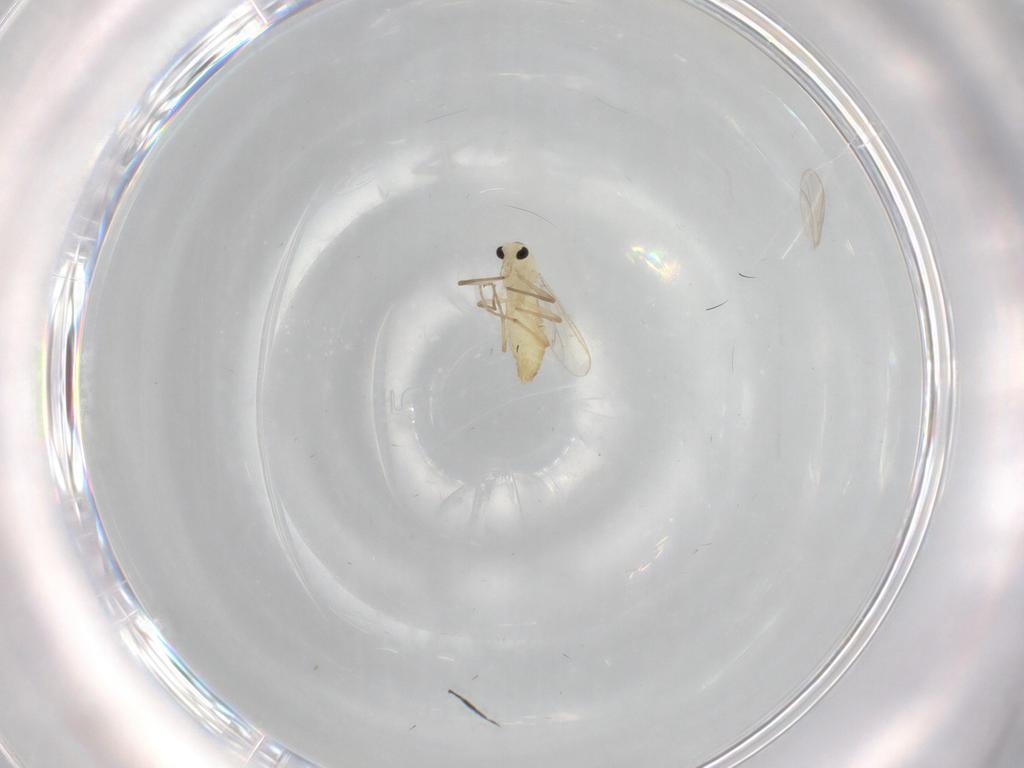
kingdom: Animalia
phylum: Arthropoda
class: Insecta
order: Diptera
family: Chironomidae
